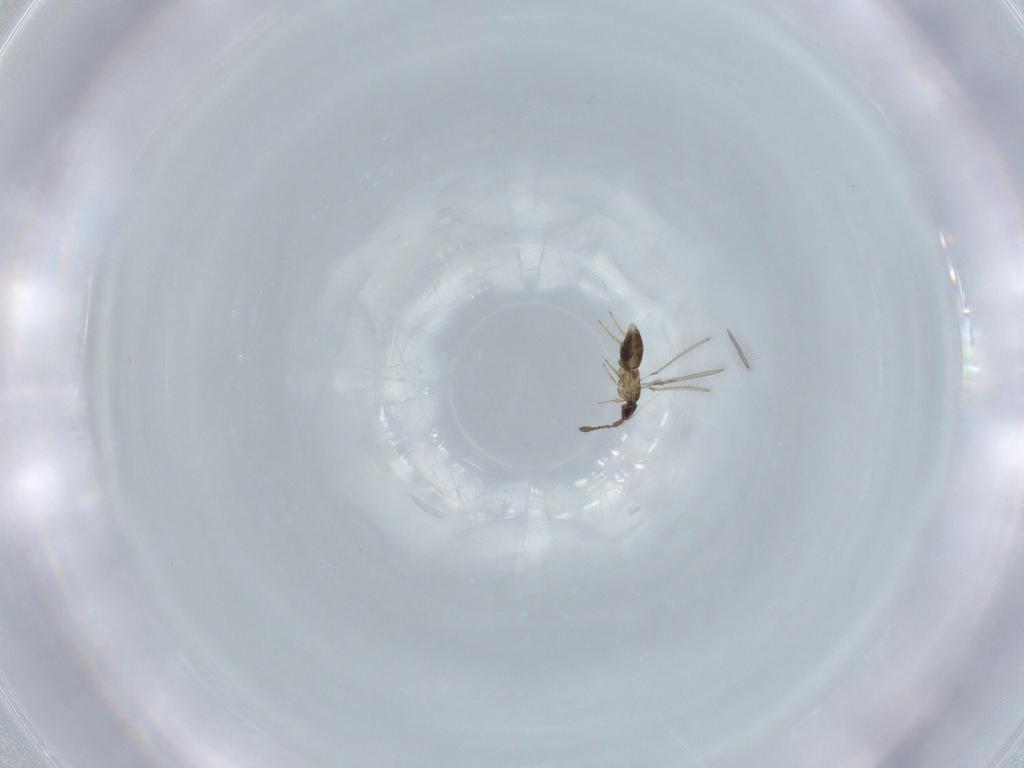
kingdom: Animalia
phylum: Arthropoda
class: Insecta
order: Hymenoptera
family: Mymaridae
